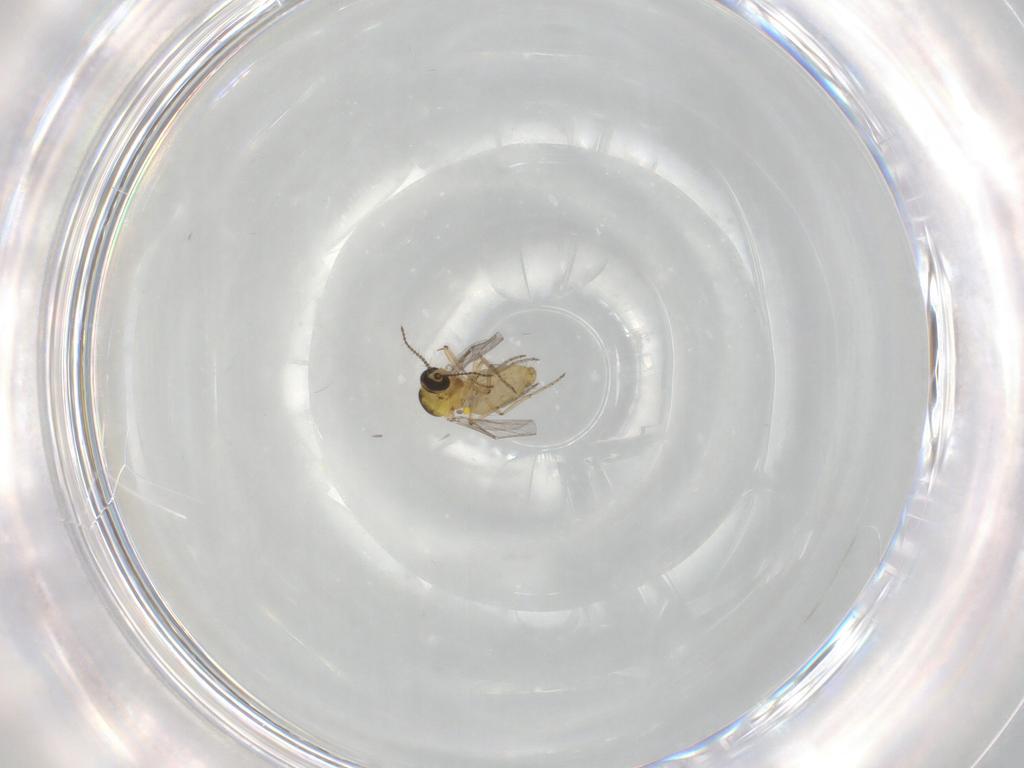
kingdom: Animalia
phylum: Arthropoda
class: Insecta
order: Diptera
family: Ceratopogonidae
